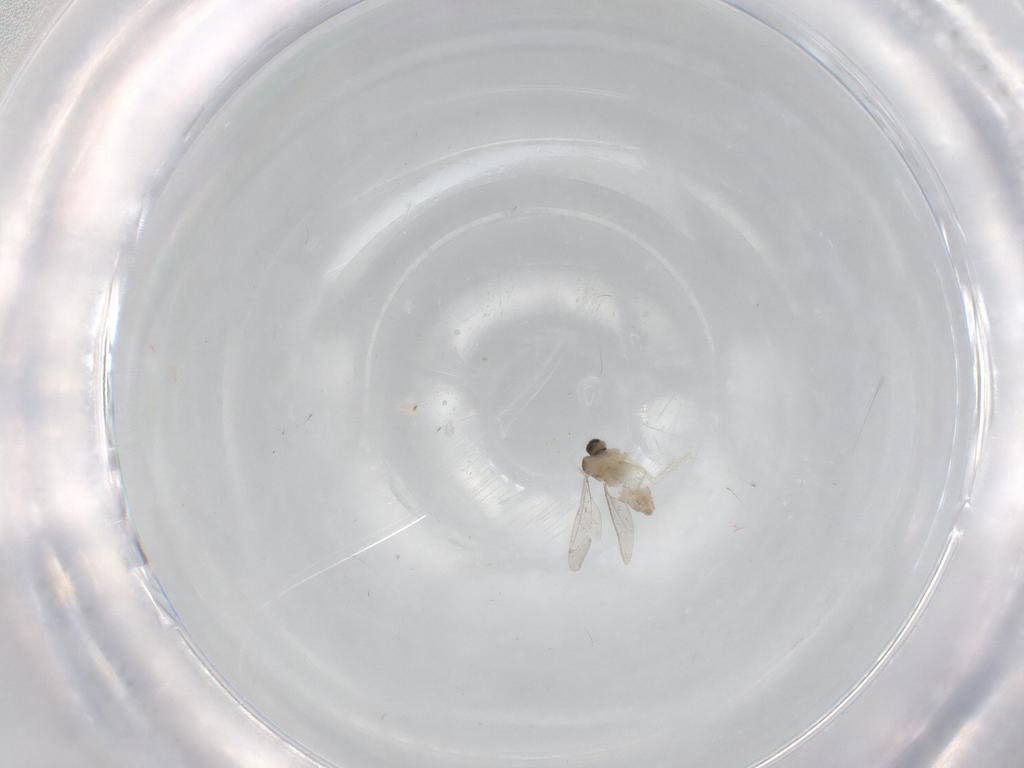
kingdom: Animalia
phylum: Arthropoda
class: Insecta
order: Diptera
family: Cecidomyiidae
